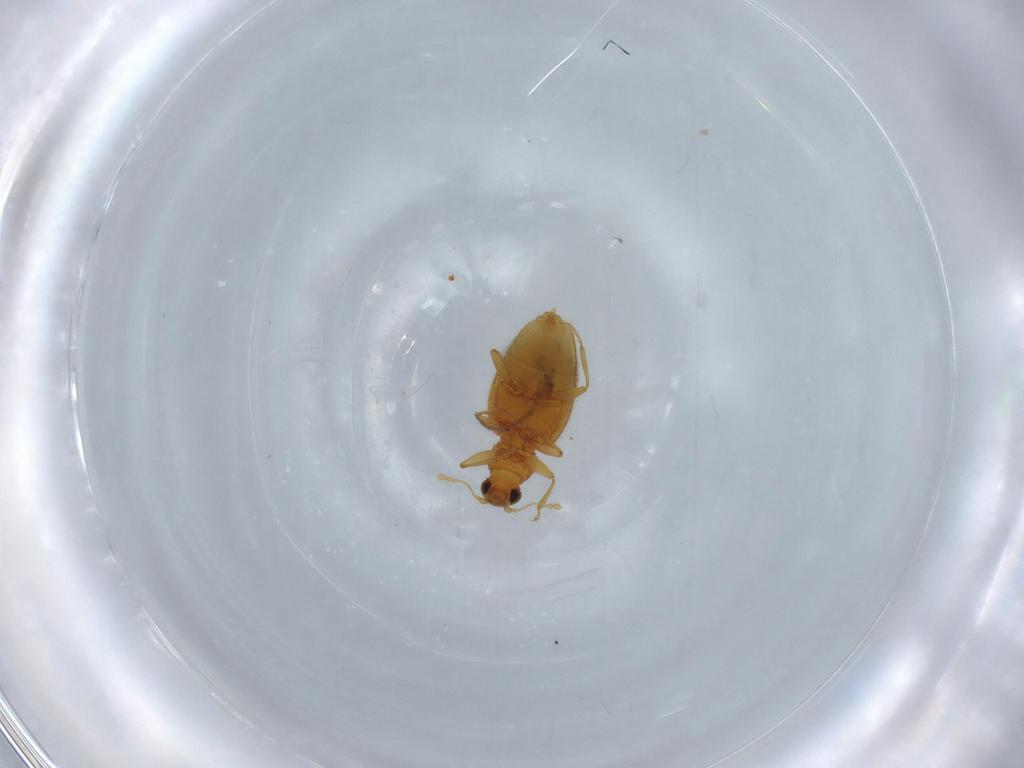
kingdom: Animalia
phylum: Arthropoda
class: Insecta
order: Coleoptera
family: Latridiidae
